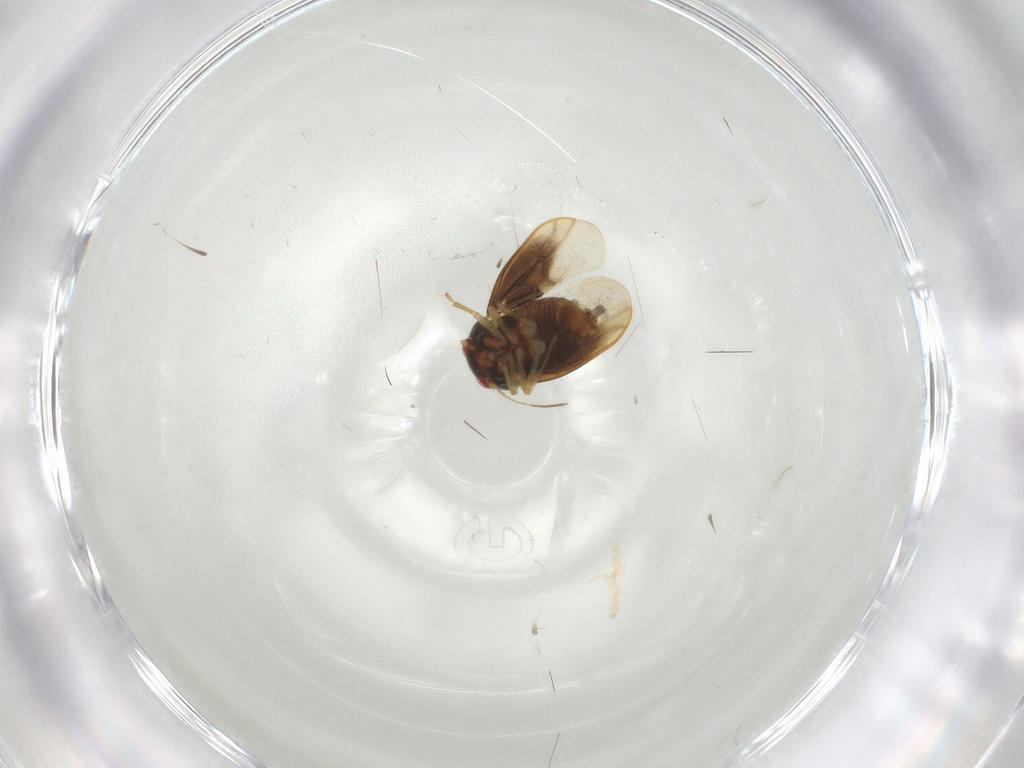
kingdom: Animalia
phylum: Arthropoda
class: Insecta
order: Hemiptera
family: Cicadellidae
